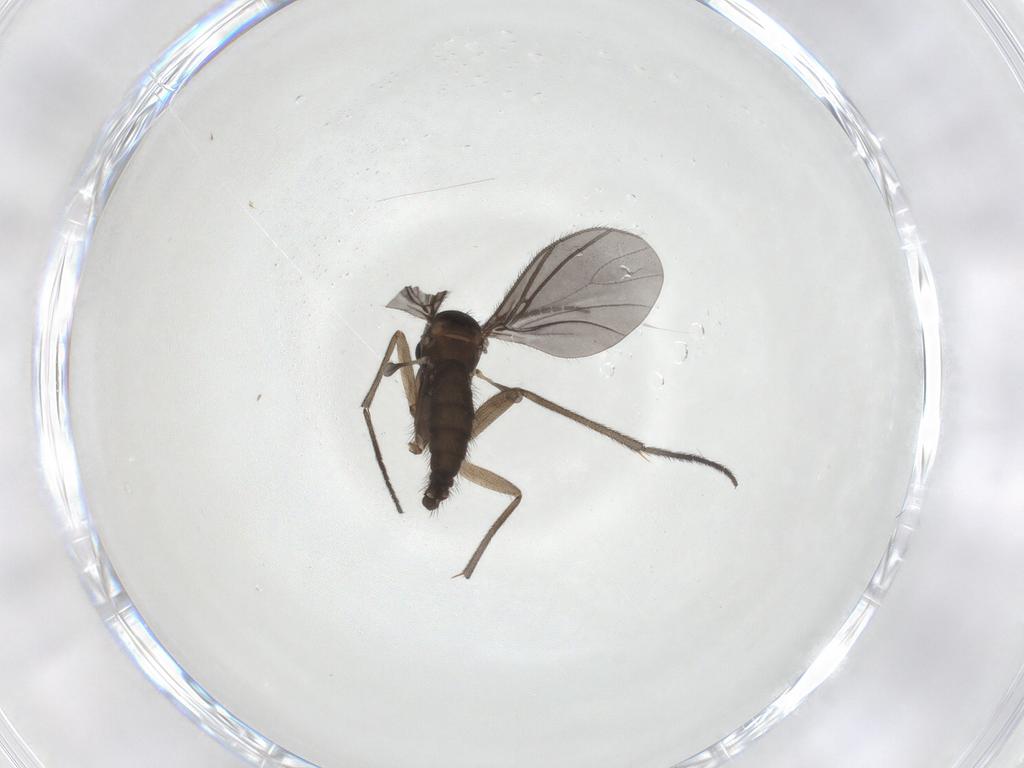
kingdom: Animalia
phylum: Arthropoda
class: Insecta
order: Diptera
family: Sciaridae
